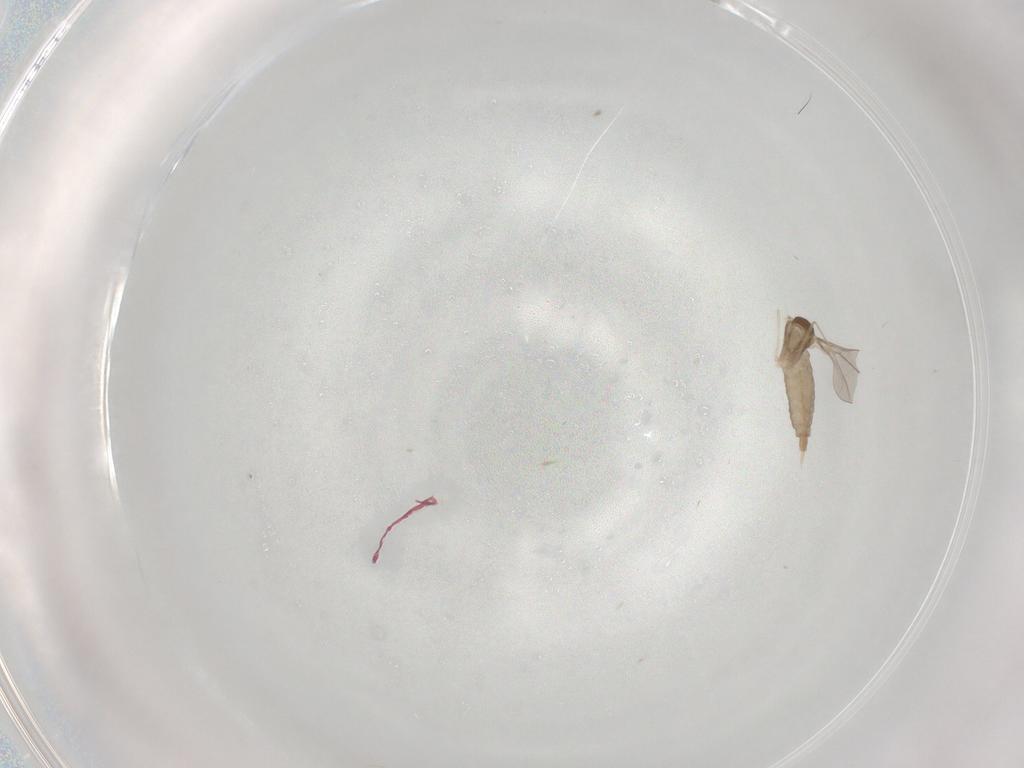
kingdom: Animalia
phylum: Arthropoda
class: Insecta
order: Diptera
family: Cecidomyiidae
